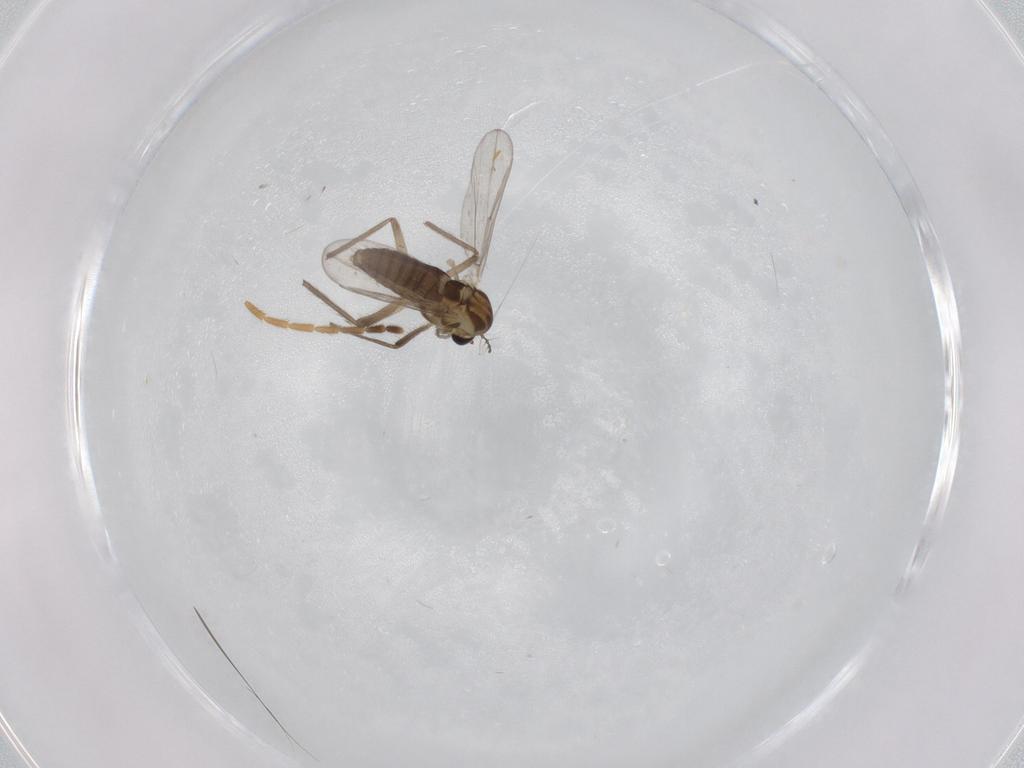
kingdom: Animalia
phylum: Arthropoda
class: Insecta
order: Diptera
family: Chironomidae
